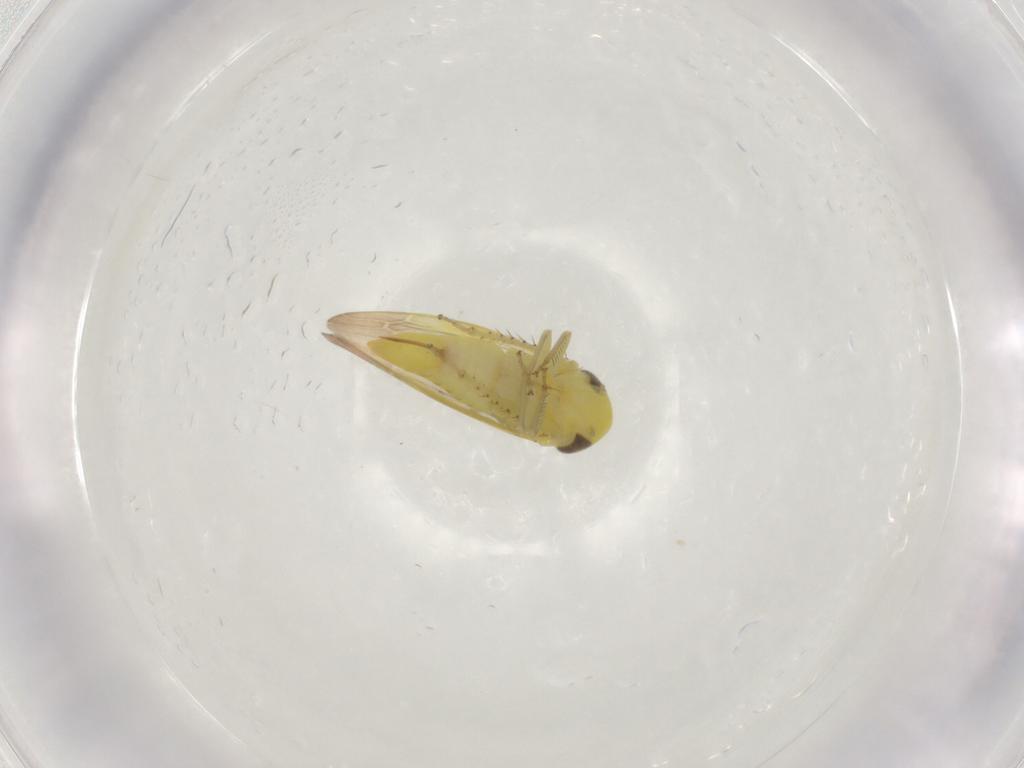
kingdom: Animalia
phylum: Arthropoda
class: Insecta
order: Hemiptera
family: Cicadellidae
